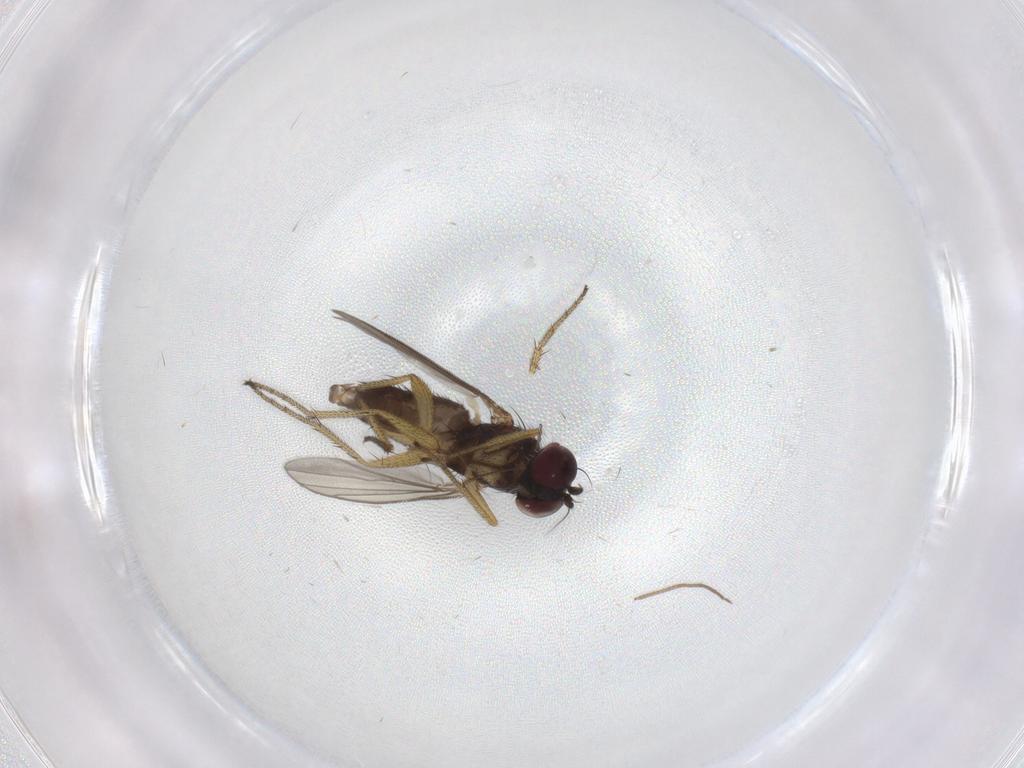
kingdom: Animalia
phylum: Arthropoda
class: Insecta
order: Diptera
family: Dolichopodidae
